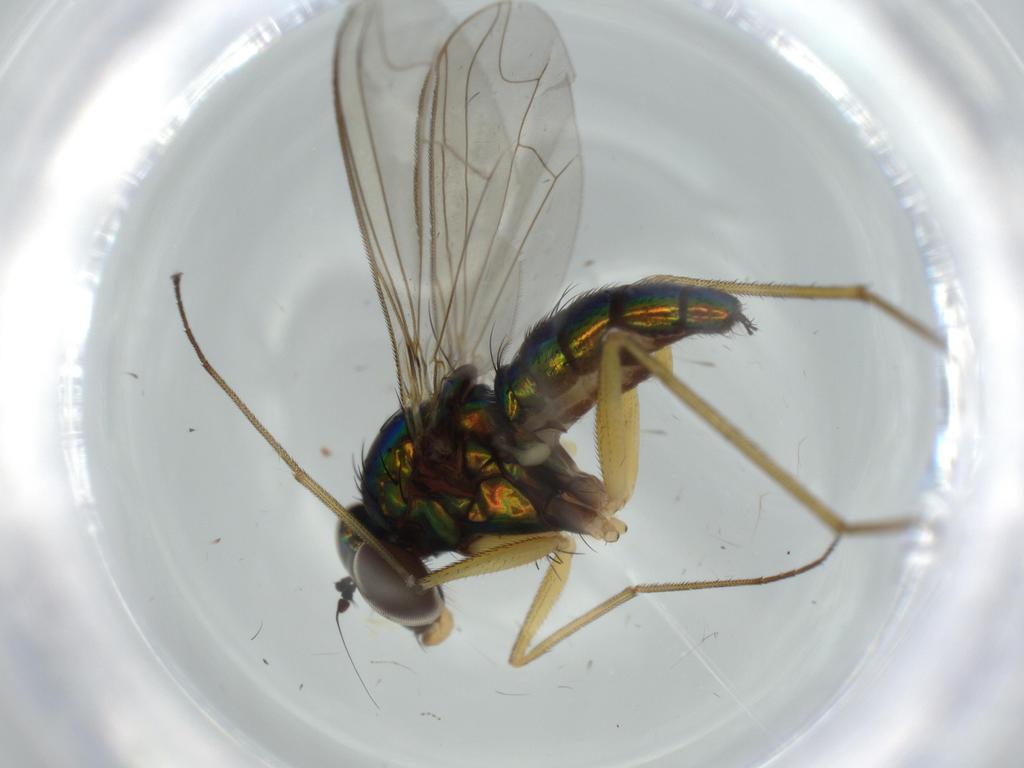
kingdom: Animalia
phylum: Arthropoda
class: Insecta
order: Diptera
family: Dolichopodidae
